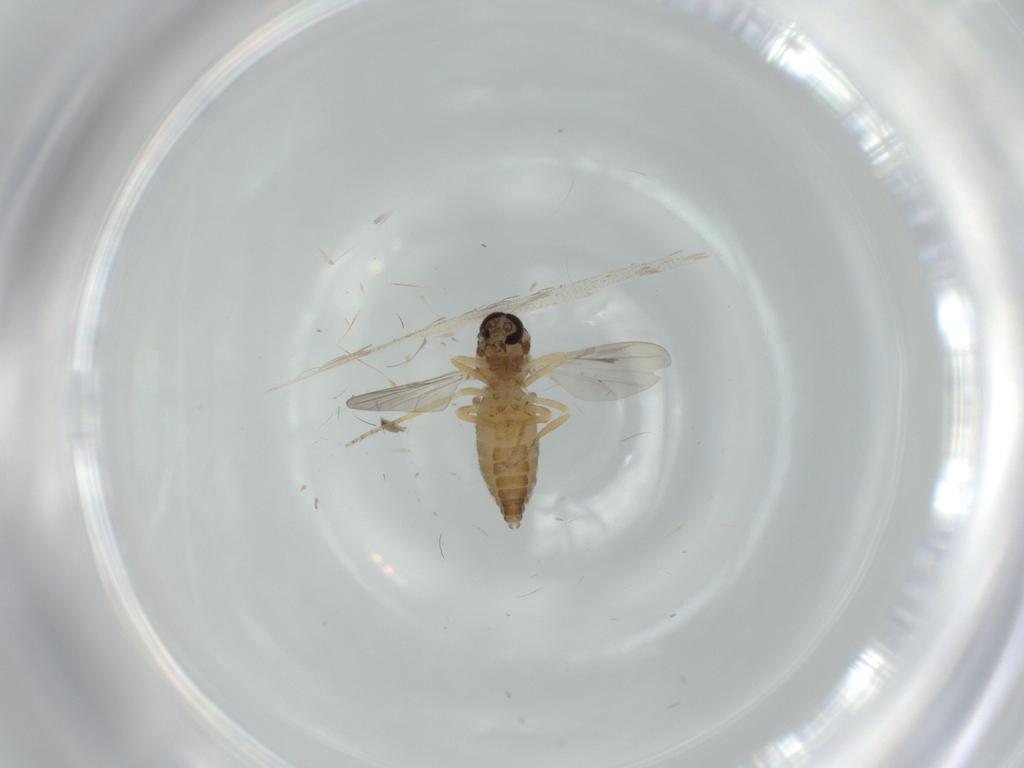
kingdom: Animalia
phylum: Arthropoda
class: Insecta
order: Diptera
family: Ceratopogonidae
